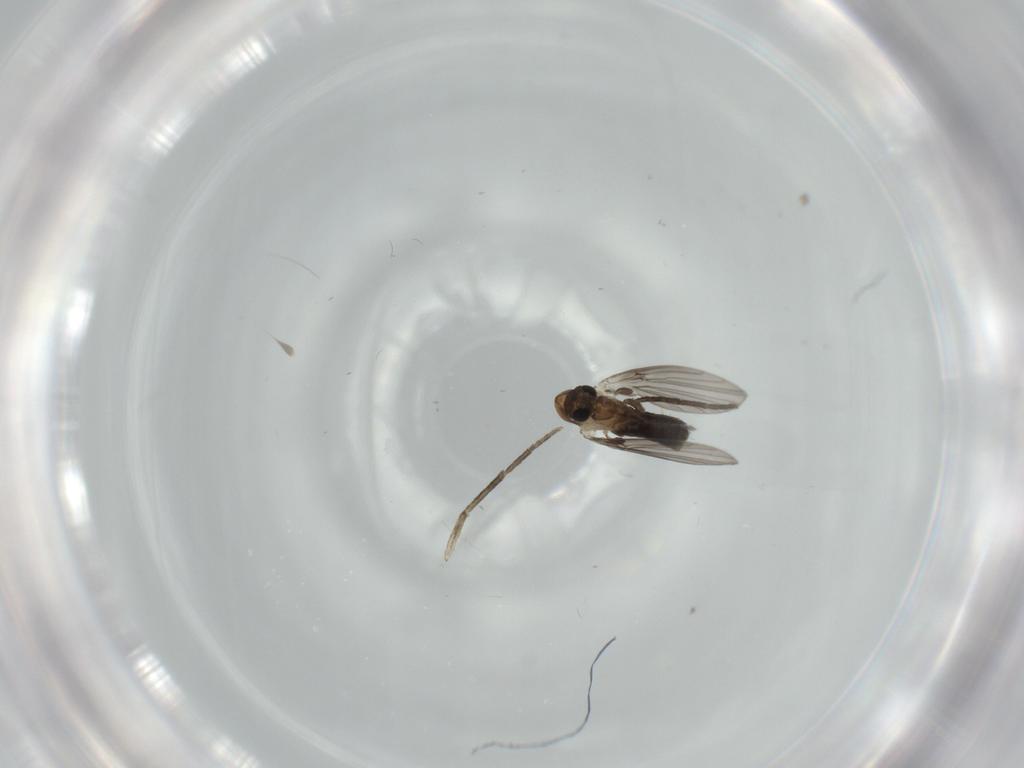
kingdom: Animalia
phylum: Arthropoda
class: Insecta
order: Diptera
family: Psychodidae
